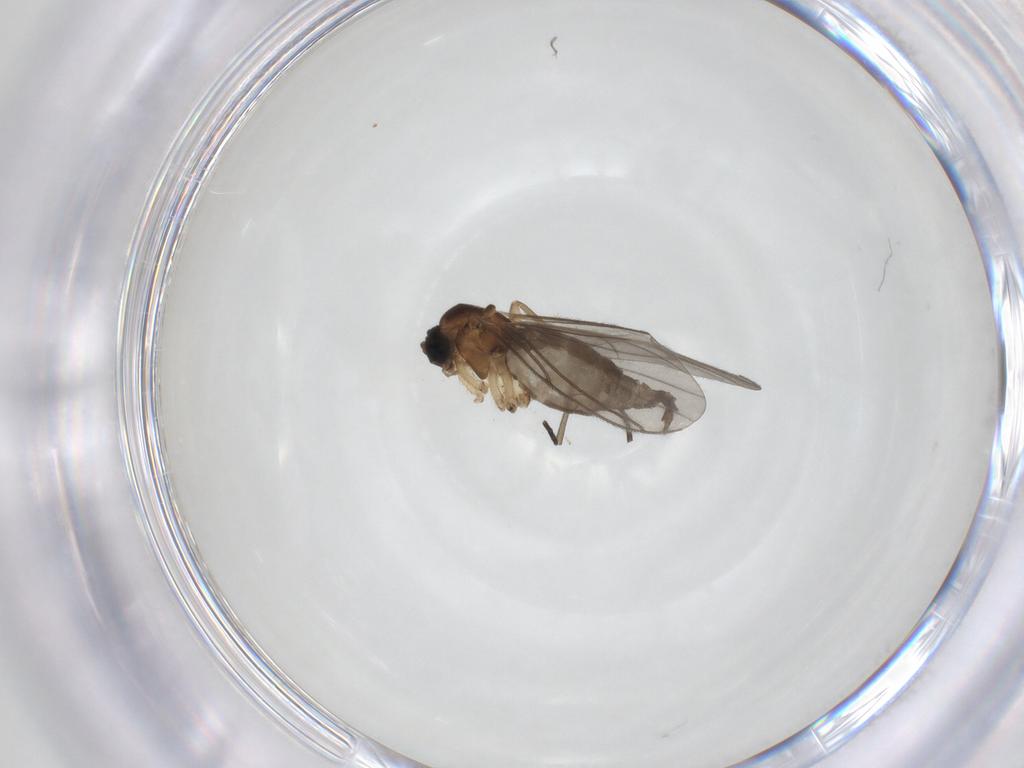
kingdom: Animalia
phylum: Arthropoda
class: Insecta
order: Diptera
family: Sciaridae
